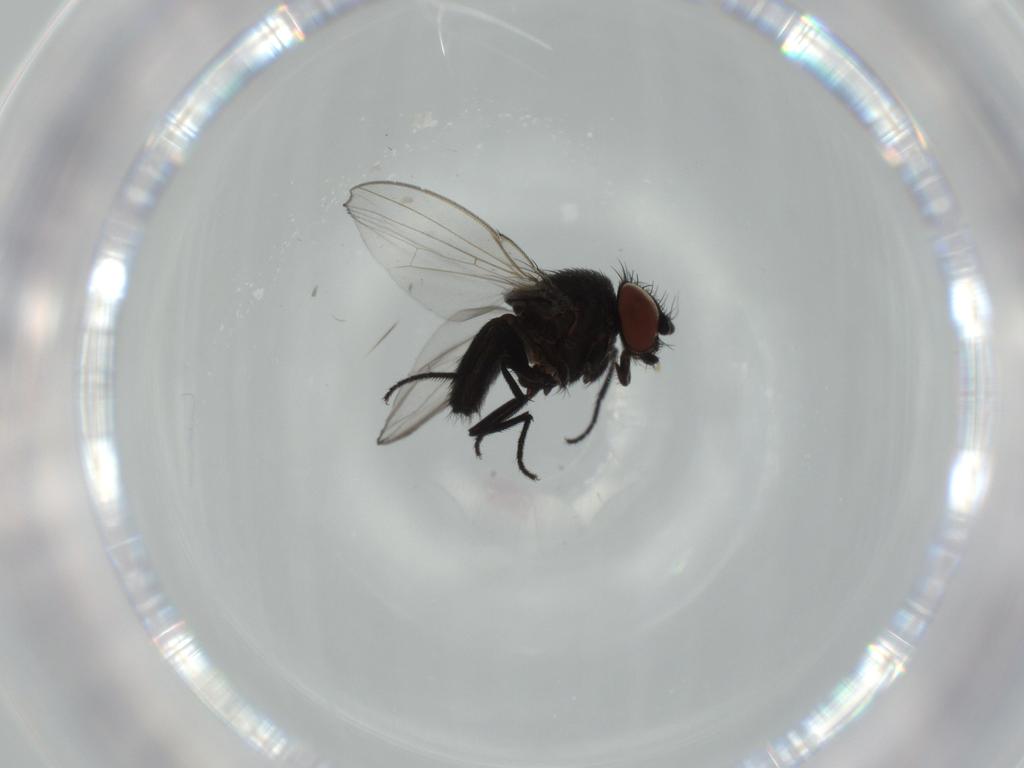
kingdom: Animalia
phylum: Arthropoda
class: Insecta
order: Diptera
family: Milichiidae
